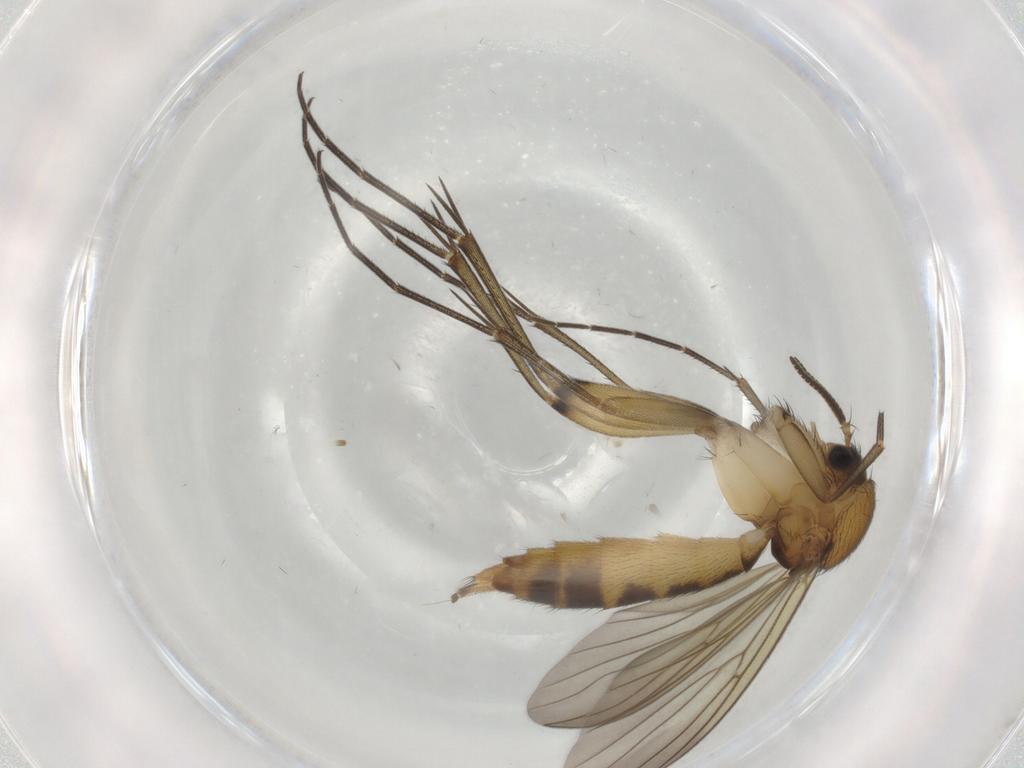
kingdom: Animalia
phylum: Arthropoda
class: Insecta
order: Diptera
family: Mycetophilidae
